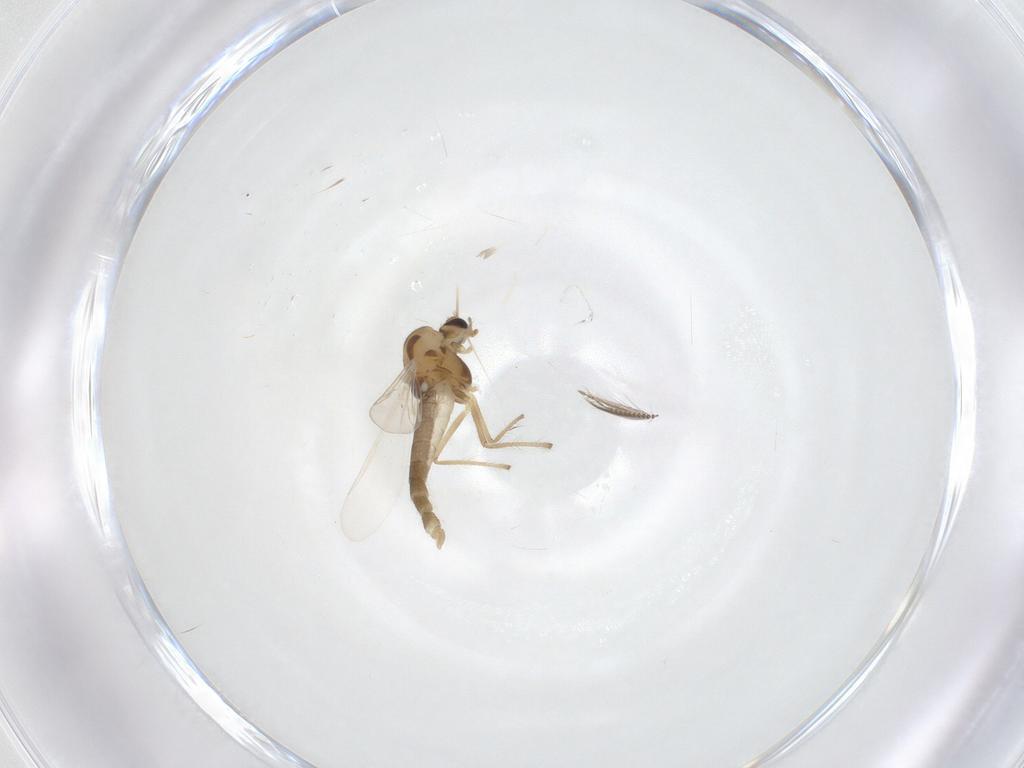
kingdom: Animalia
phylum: Arthropoda
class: Insecta
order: Diptera
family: Chironomidae
